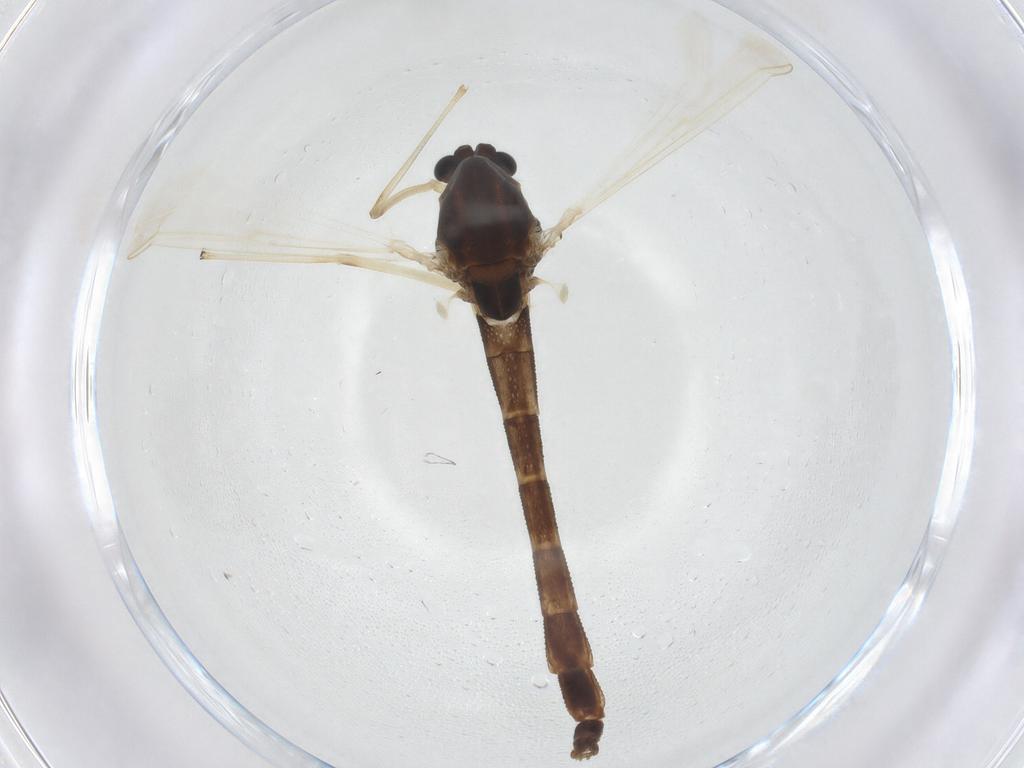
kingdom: Animalia
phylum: Arthropoda
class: Insecta
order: Diptera
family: Chironomidae
